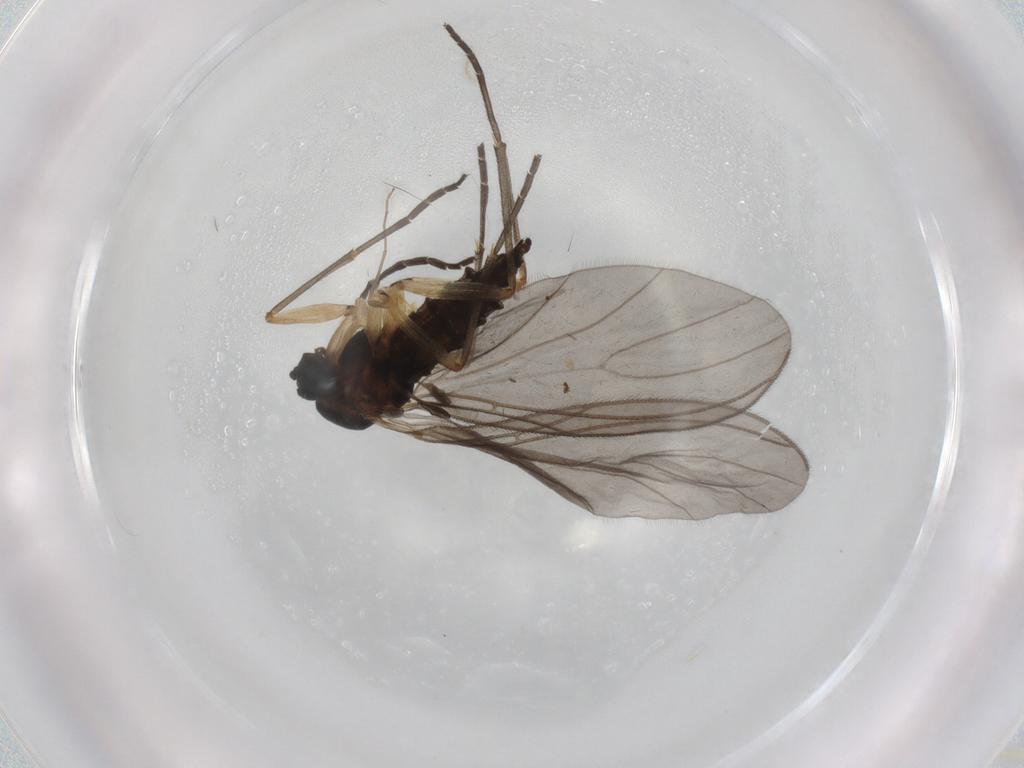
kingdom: Animalia
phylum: Arthropoda
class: Insecta
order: Diptera
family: Sciaridae
